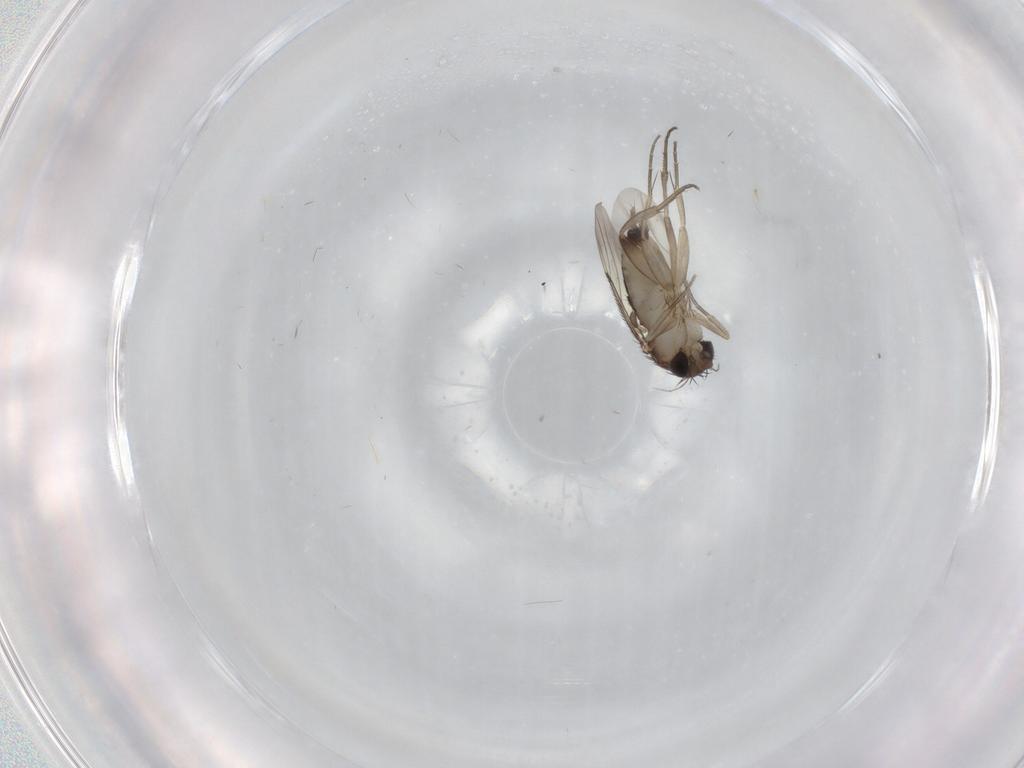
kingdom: Animalia
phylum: Arthropoda
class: Insecta
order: Diptera
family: Phoridae
